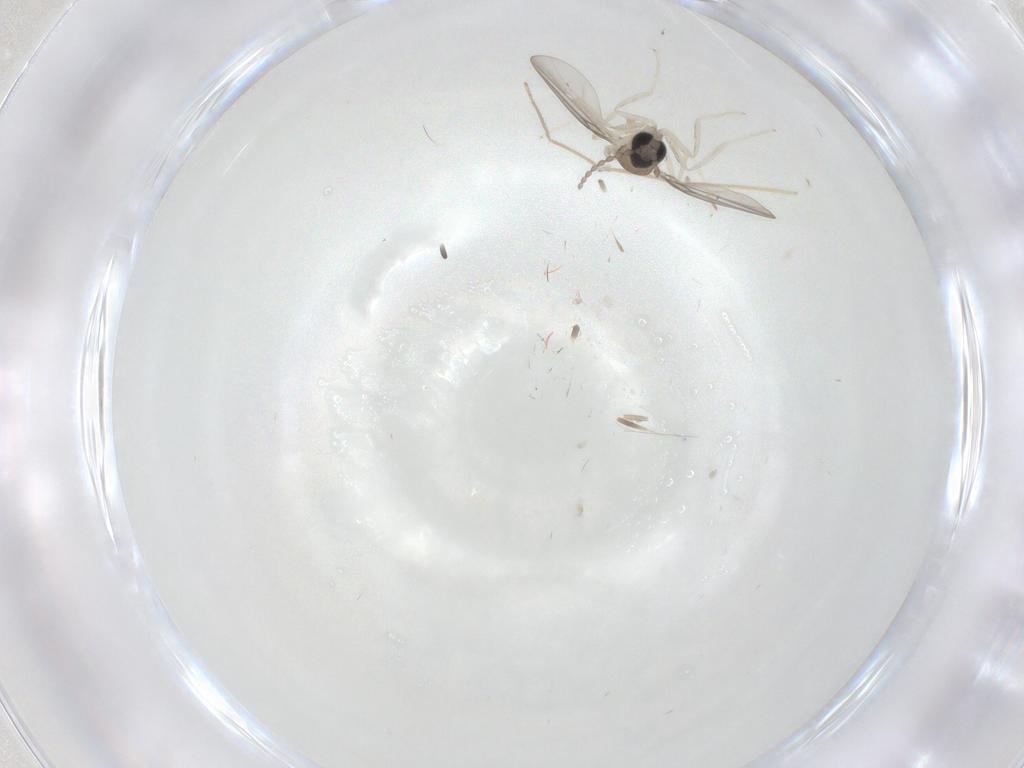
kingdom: Animalia
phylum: Arthropoda
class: Insecta
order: Diptera
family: Chironomidae
